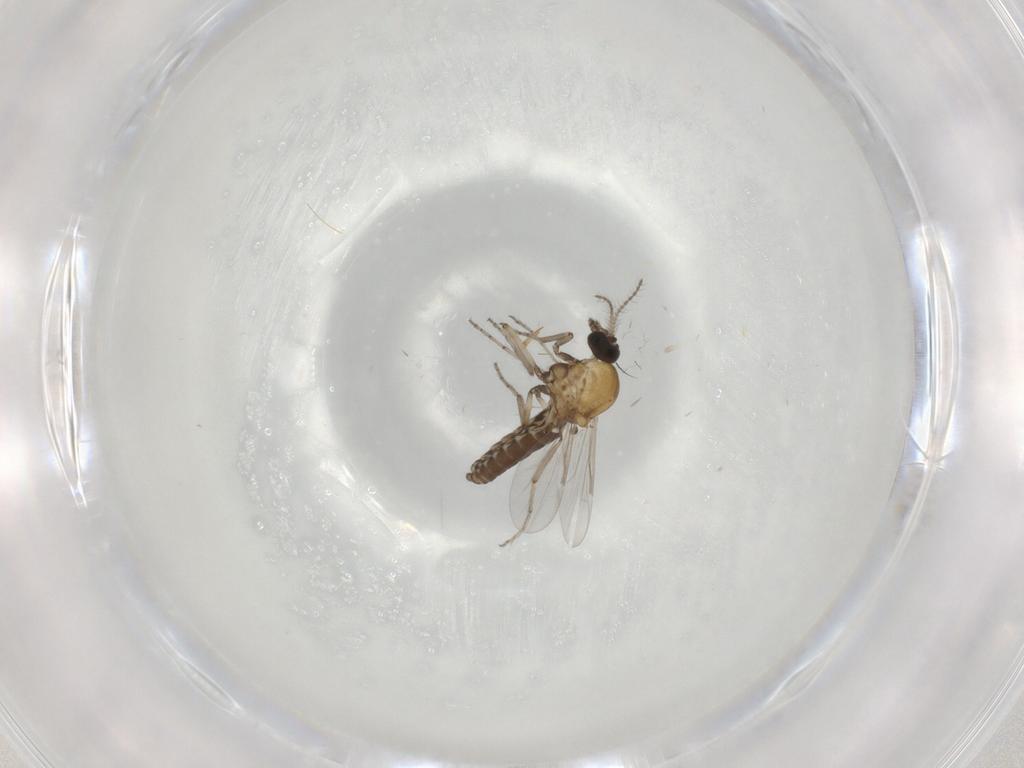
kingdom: Animalia
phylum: Arthropoda
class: Insecta
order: Diptera
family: Ceratopogonidae
